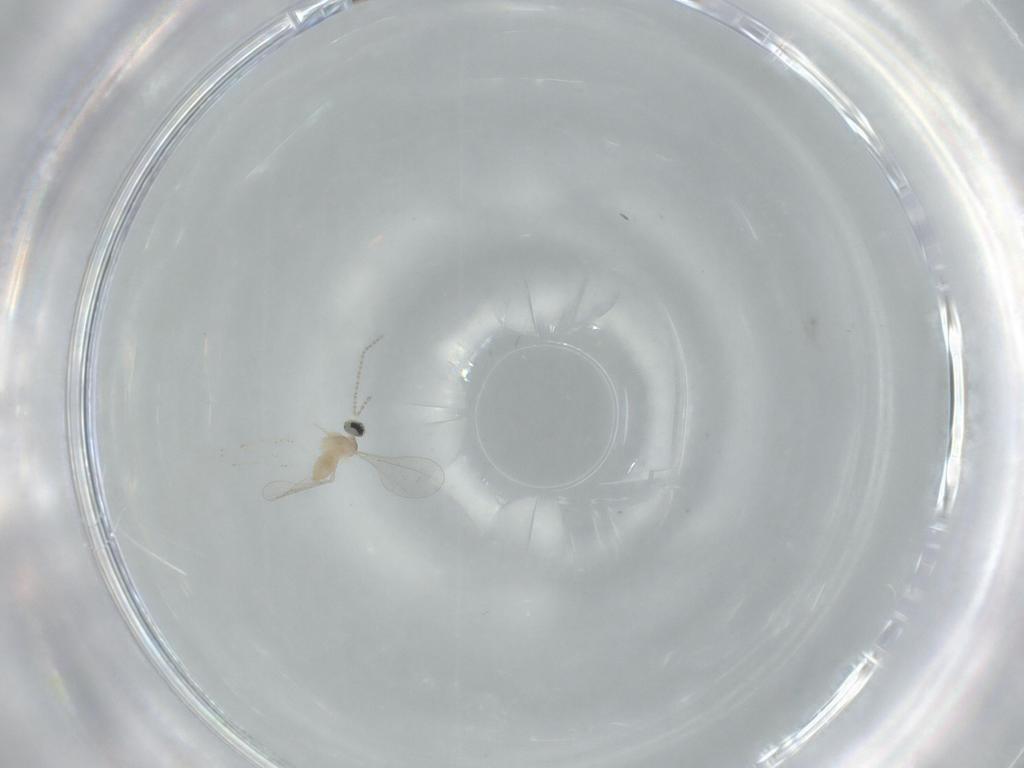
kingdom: Animalia
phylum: Arthropoda
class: Insecta
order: Diptera
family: Cecidomyiidae
